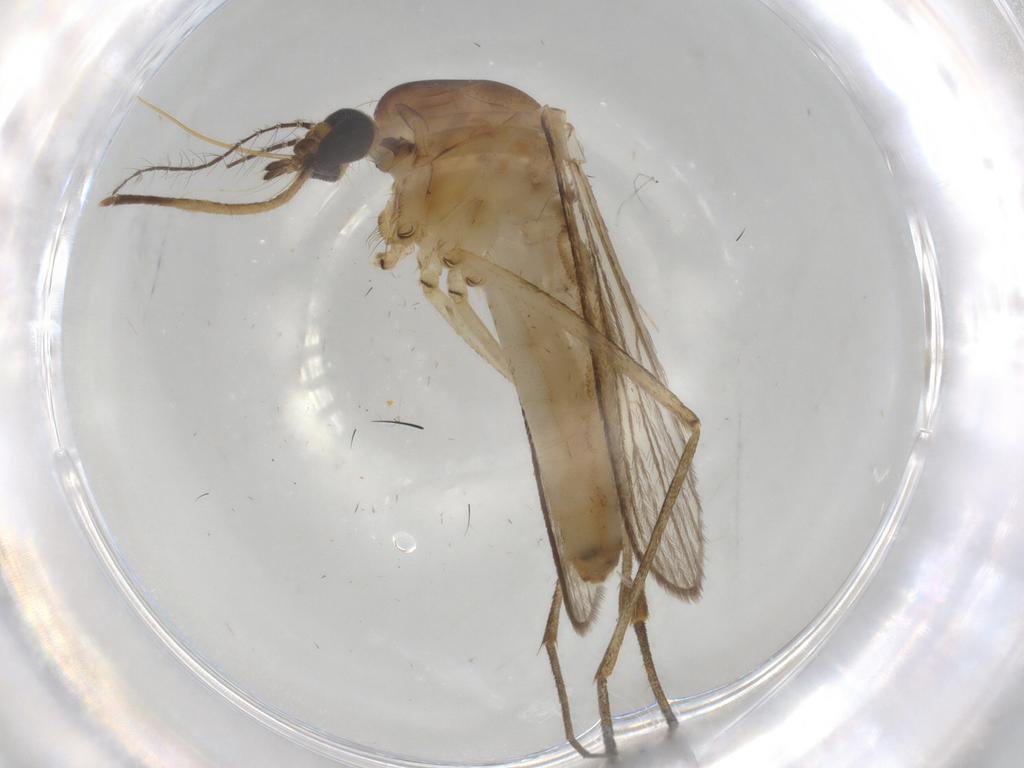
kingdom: Animalia
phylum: Arthropoda
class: Insecta
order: Diptera
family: Culicidae
